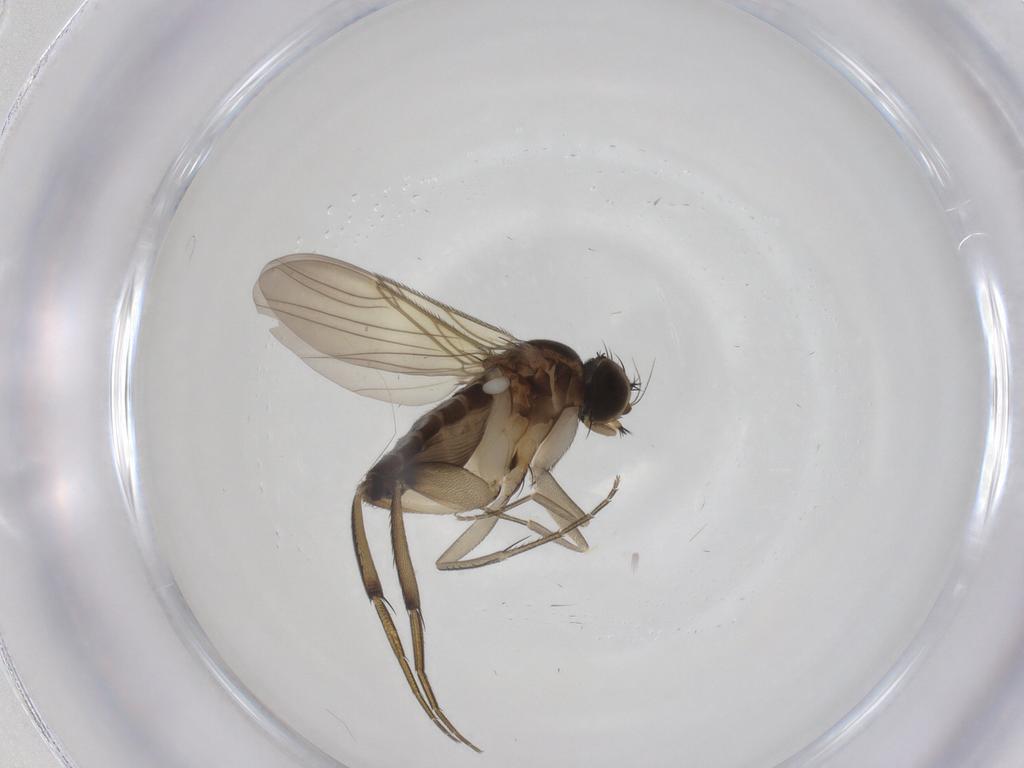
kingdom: Animalia
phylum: Arthropoda
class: Insecta
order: Diptera
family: Phoridae
